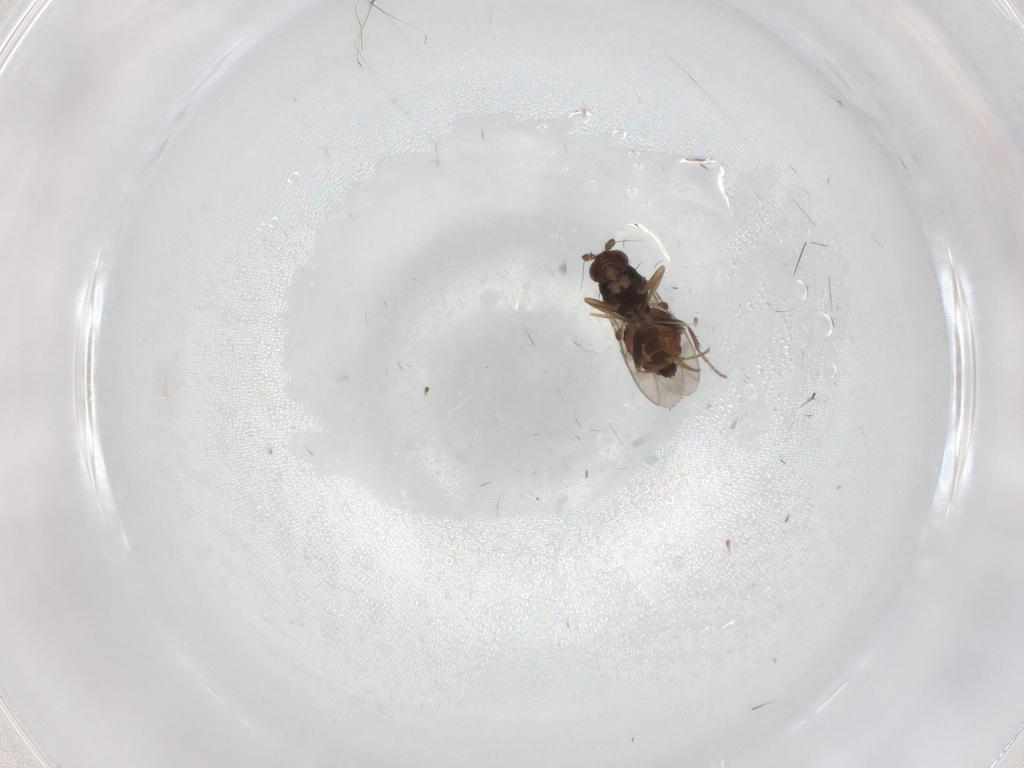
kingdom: Animalia
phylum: Arthropoda
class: Insecta
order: Diptera
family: Sphaeroceridae
